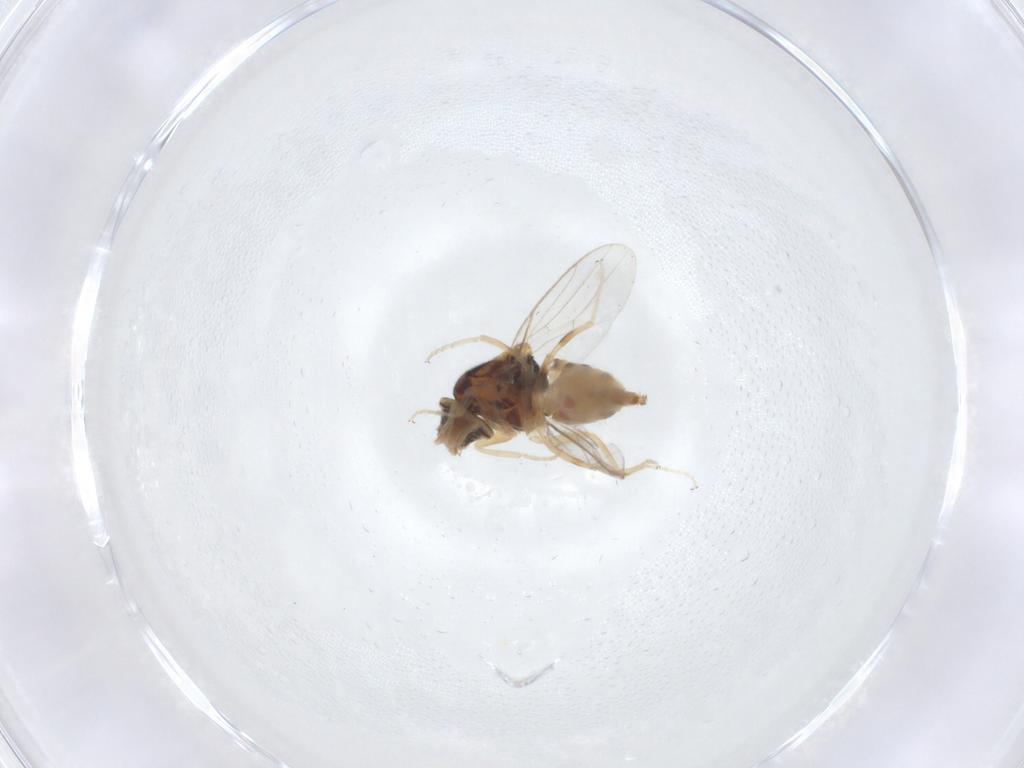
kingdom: Animalia
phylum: Arthropoda
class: Insecta
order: Diptera
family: Chloropidae
